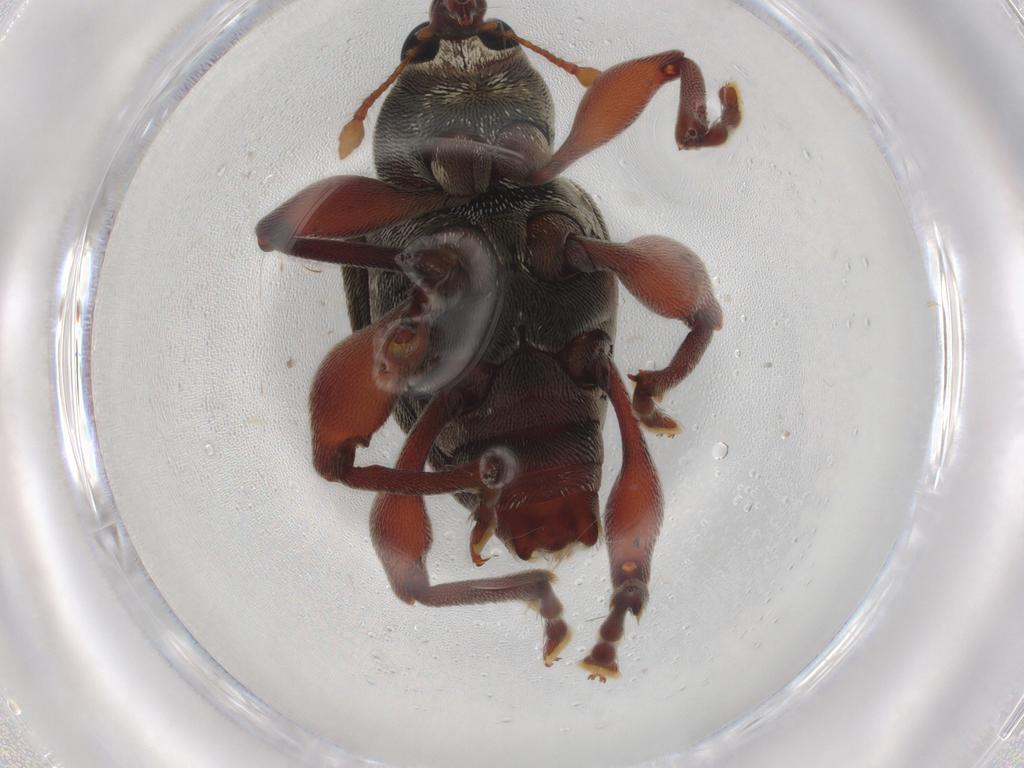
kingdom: Animalia
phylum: Arthropoda
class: Insecta
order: Coleoptera
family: Curculionidae
